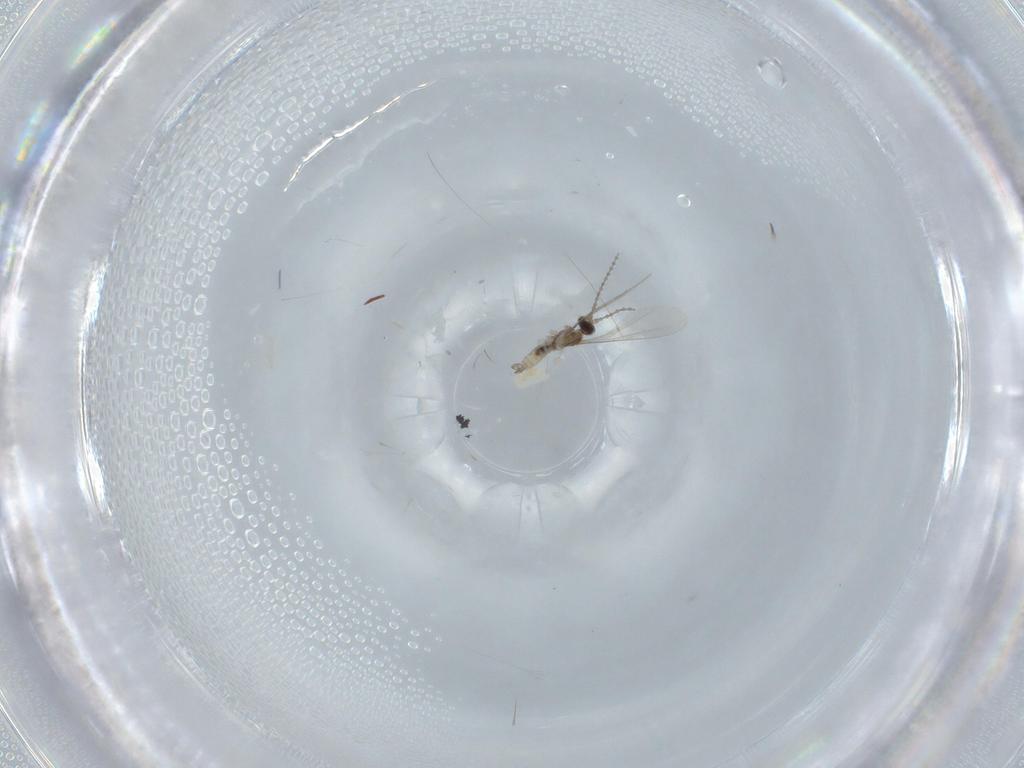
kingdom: Animalia
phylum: Arthropoda
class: Insecta
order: Diptera
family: Cecidomyiidae
